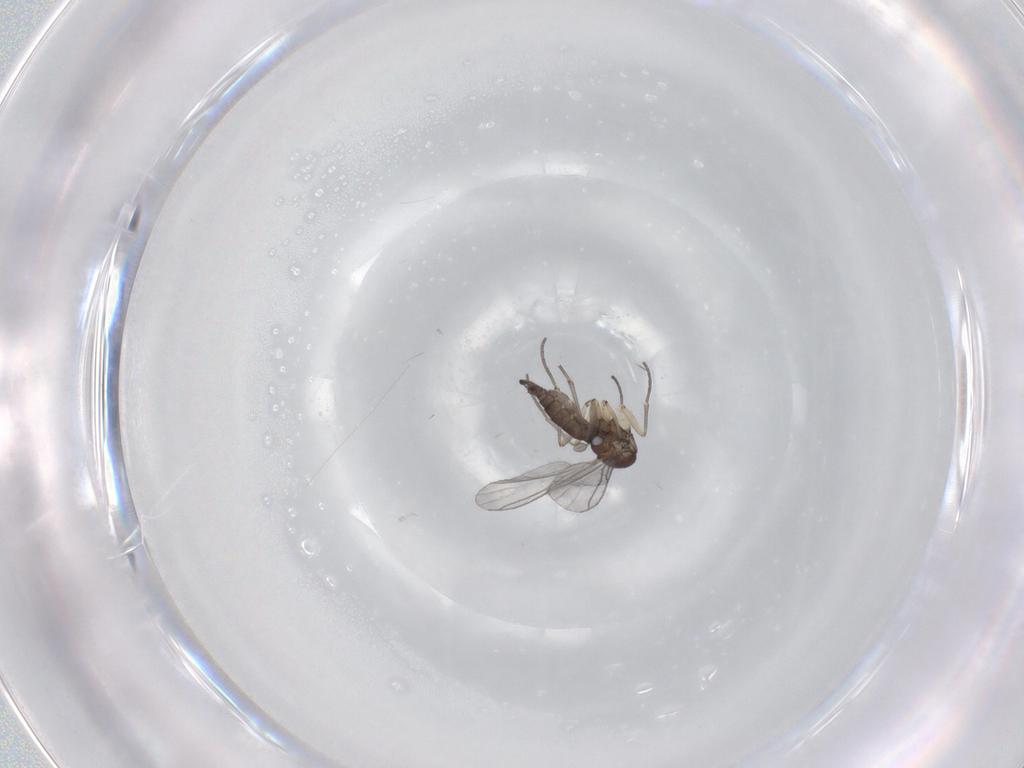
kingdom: Animalia
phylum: Arthropoda
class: Insecta
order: Diptera
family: Sciaridae
